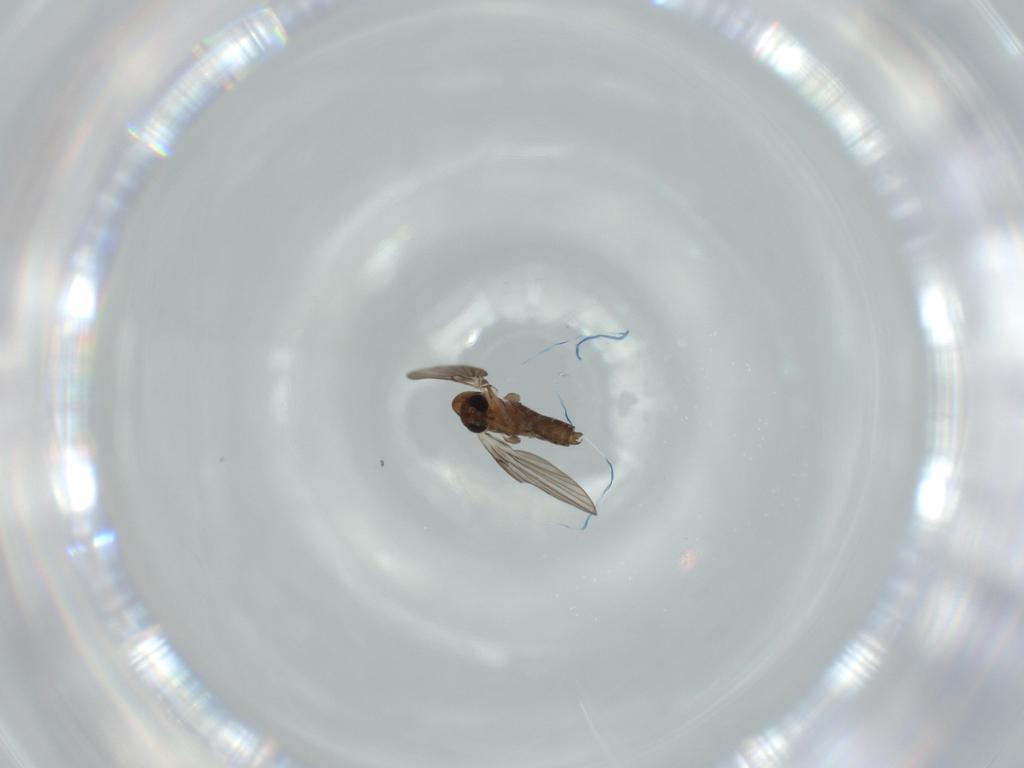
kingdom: Animalia
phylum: Arthropoda
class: Insecta
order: Diptera
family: Psychodidae
